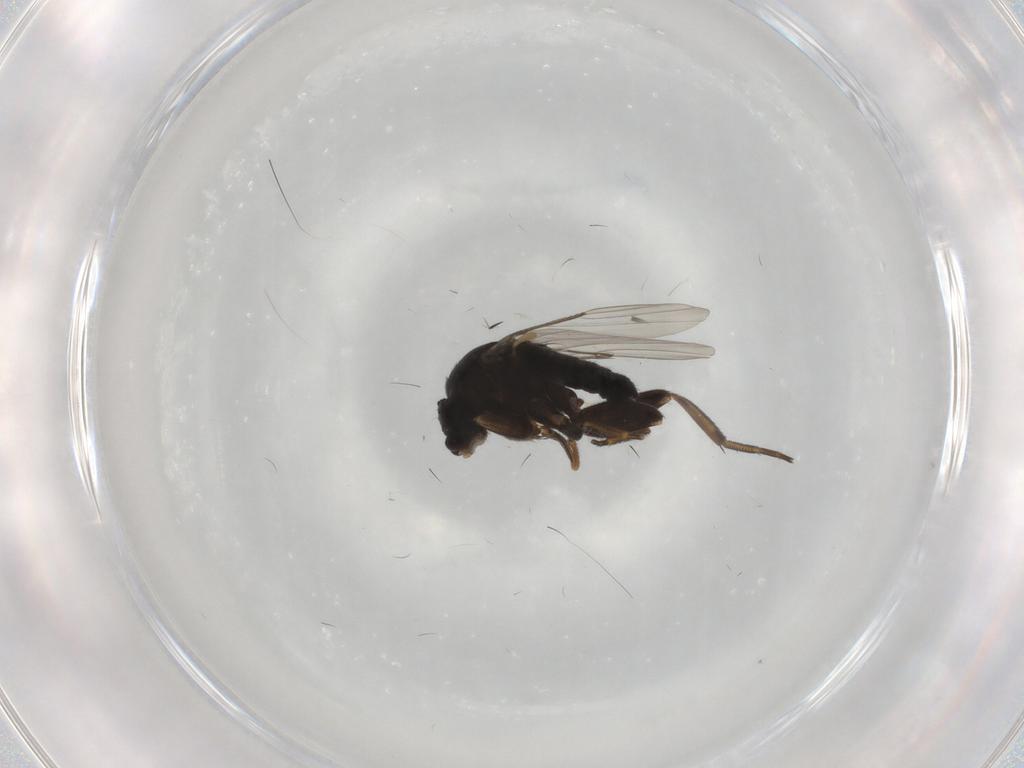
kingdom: Animalia
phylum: Arthropoda
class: Insecta
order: Diptera
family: Phoridae
